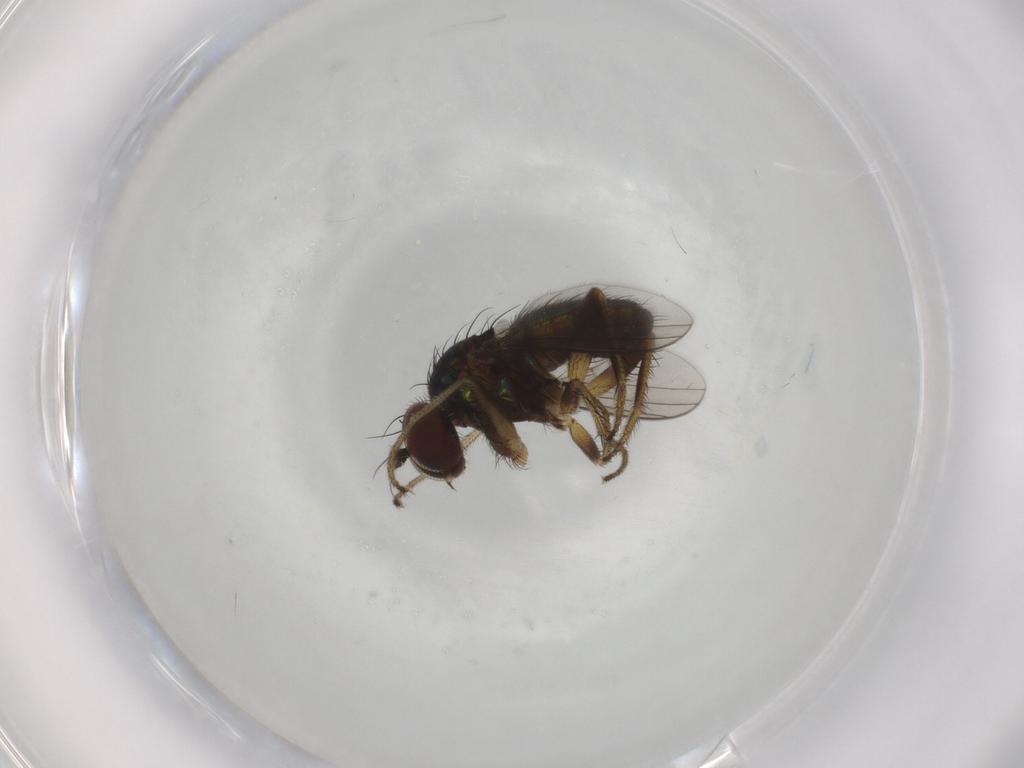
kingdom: Animalia
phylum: Arthropoda
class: Insecta
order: Diptera
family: Dolichopodidae
